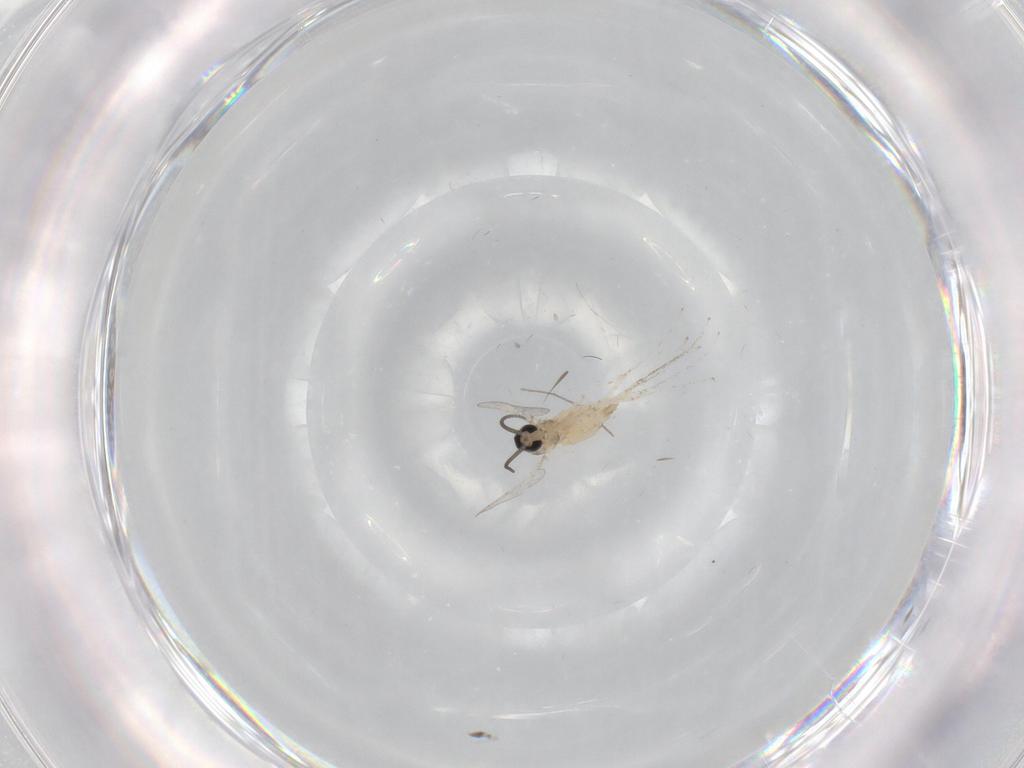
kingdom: Animalia
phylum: Arthropoda
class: Insecta
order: Diptera
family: Cecidomyiidae
